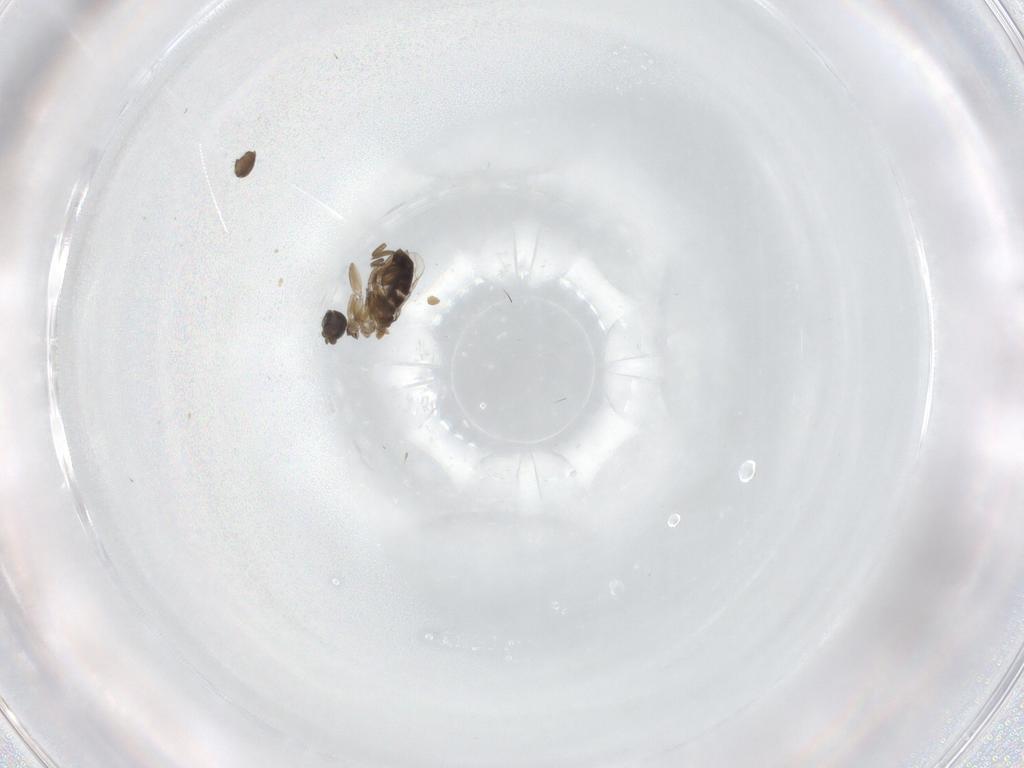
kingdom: Animalia
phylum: Arthropoda
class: Insecta
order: Diptera
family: Ceratopogonidae
